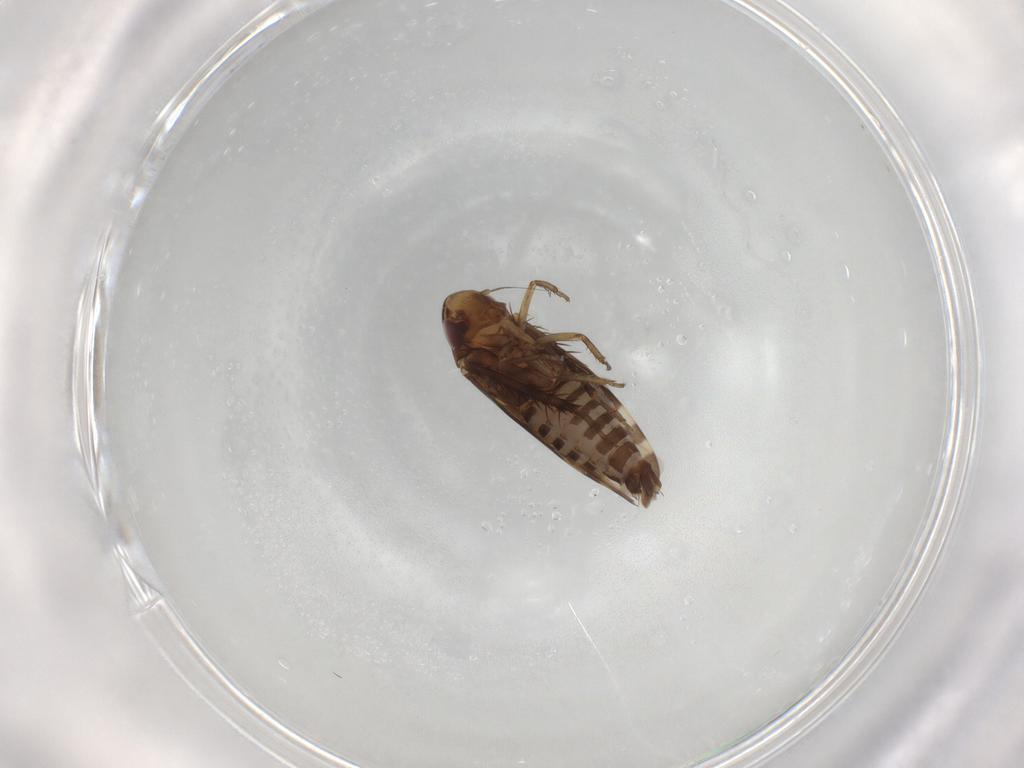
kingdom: Animalia
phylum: Arthropoda
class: Insecta
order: Hemiptera
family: Cicadellidae
